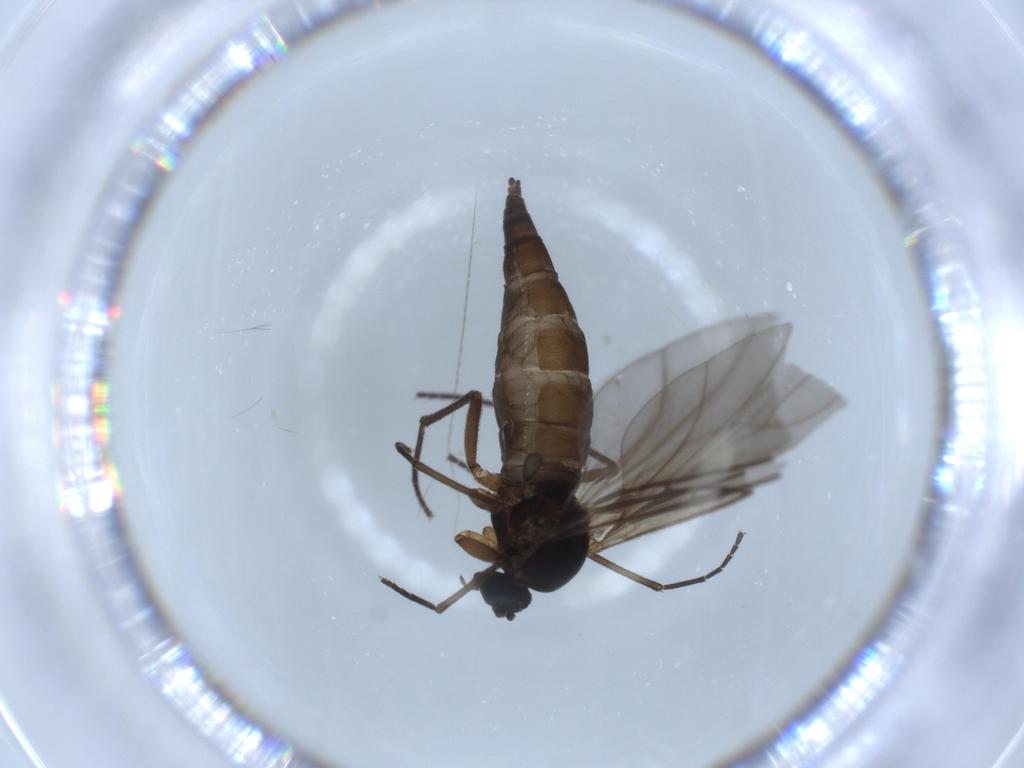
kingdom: Animalia
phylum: Arthropoda
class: Insecta
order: Diptera
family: Sciaridae
